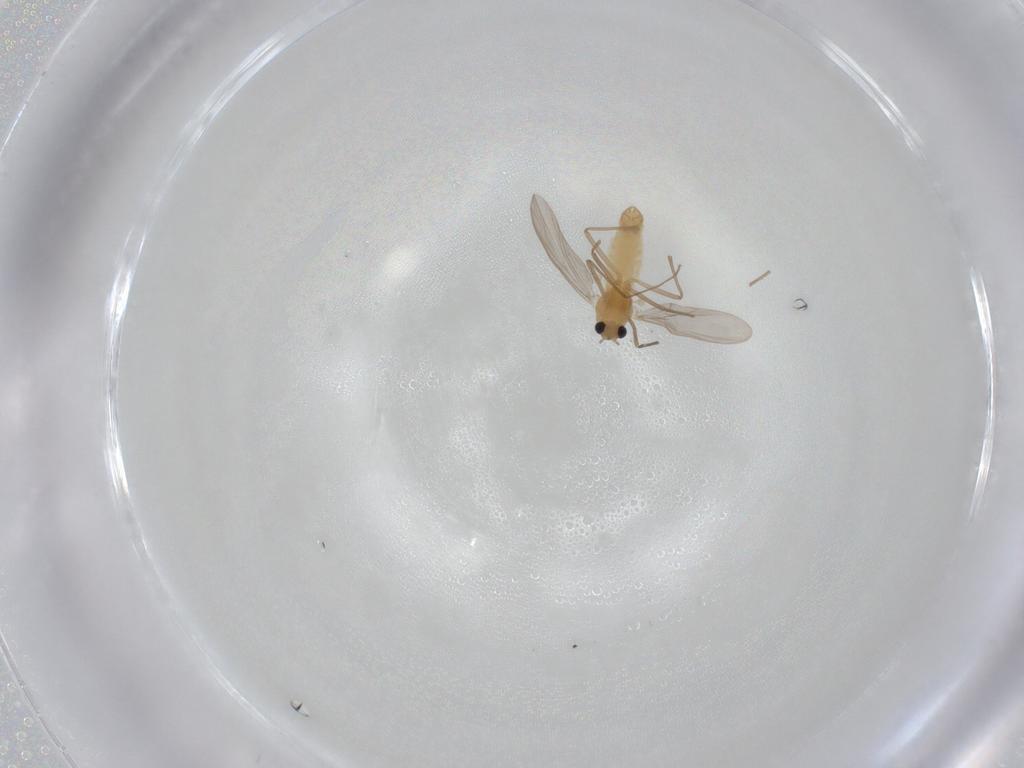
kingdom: Animalia
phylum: Arthropoda
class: Insecta
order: Diptera
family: Chironomidae
